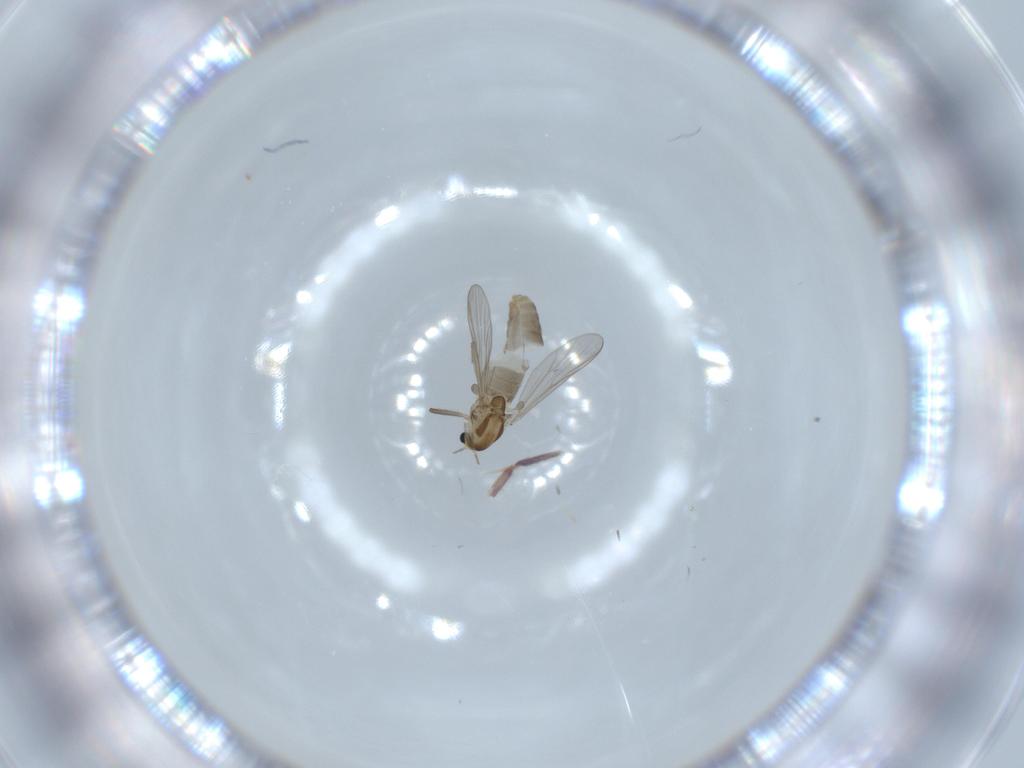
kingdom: Animalia
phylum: Arthropoda
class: Insecta
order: Diptera
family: Chironomidae
